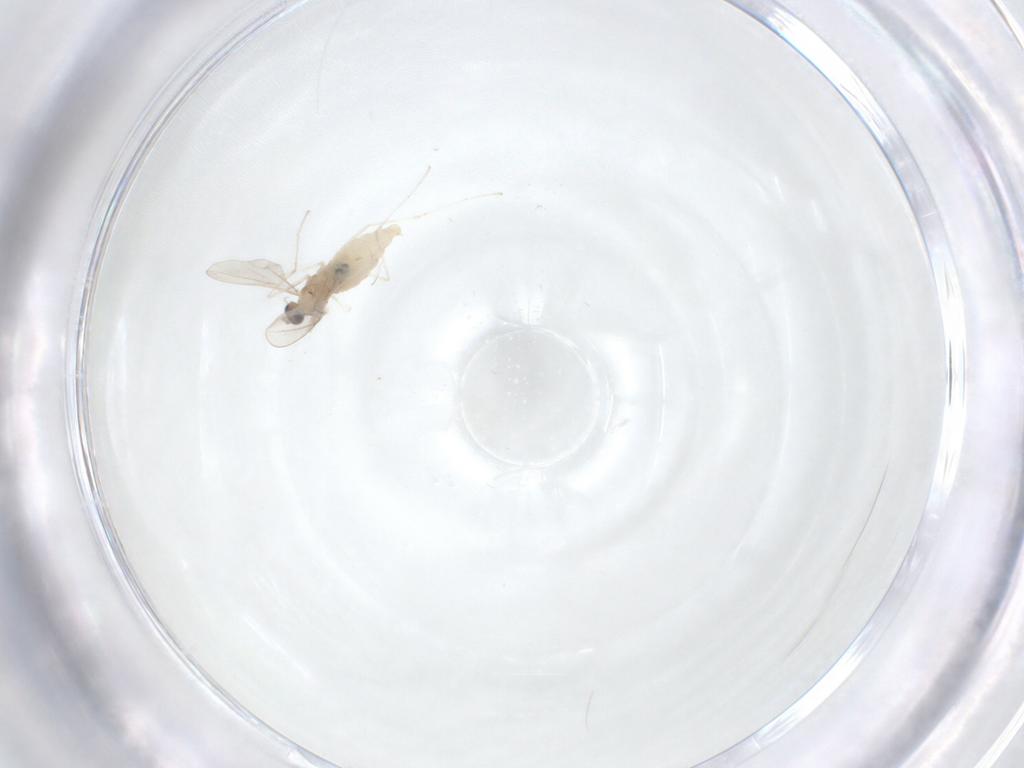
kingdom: Animalia
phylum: Arthropoda
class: Insecta
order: Diptera
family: Cecidomyiidae
